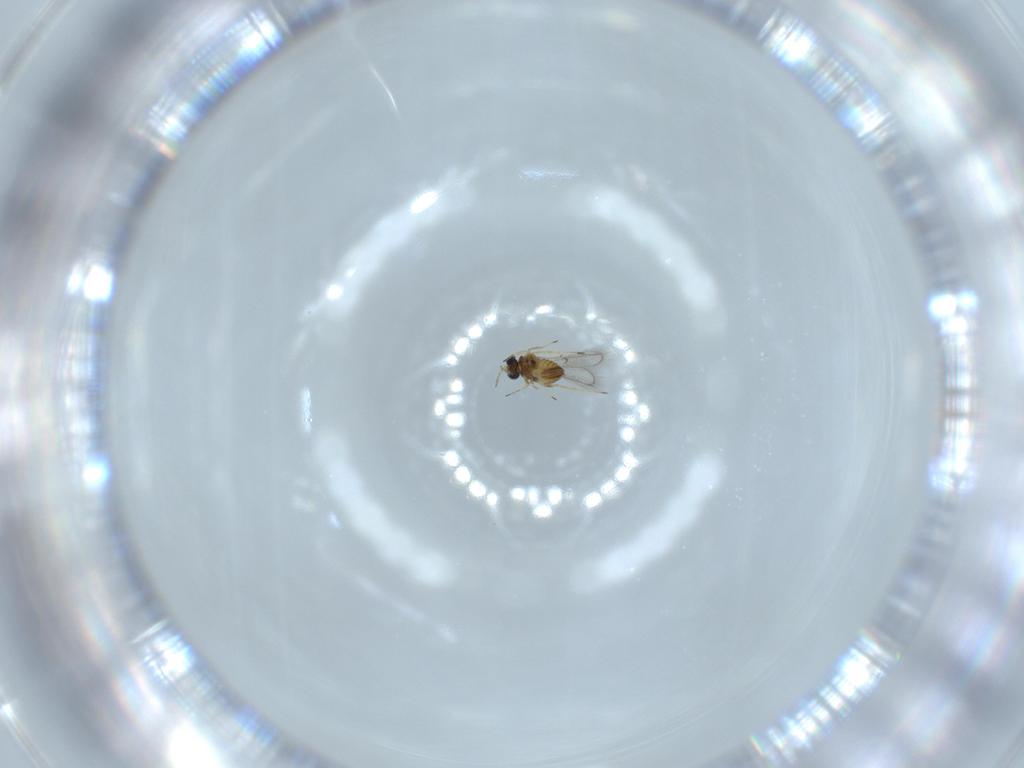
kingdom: Animalia
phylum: Arthropoda
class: Insecta
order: Hymenoptera
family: Trichogrammatidae
